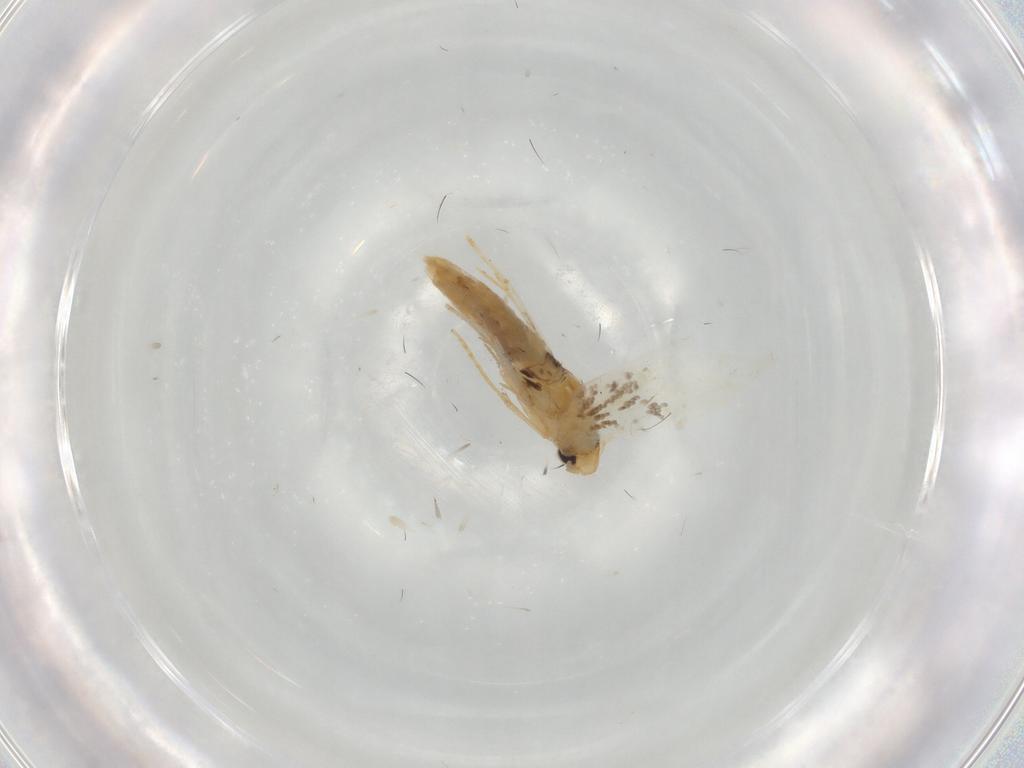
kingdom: Animalia
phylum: Arthropoda
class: Insecta
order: Lepidoptera
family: Tineidae
